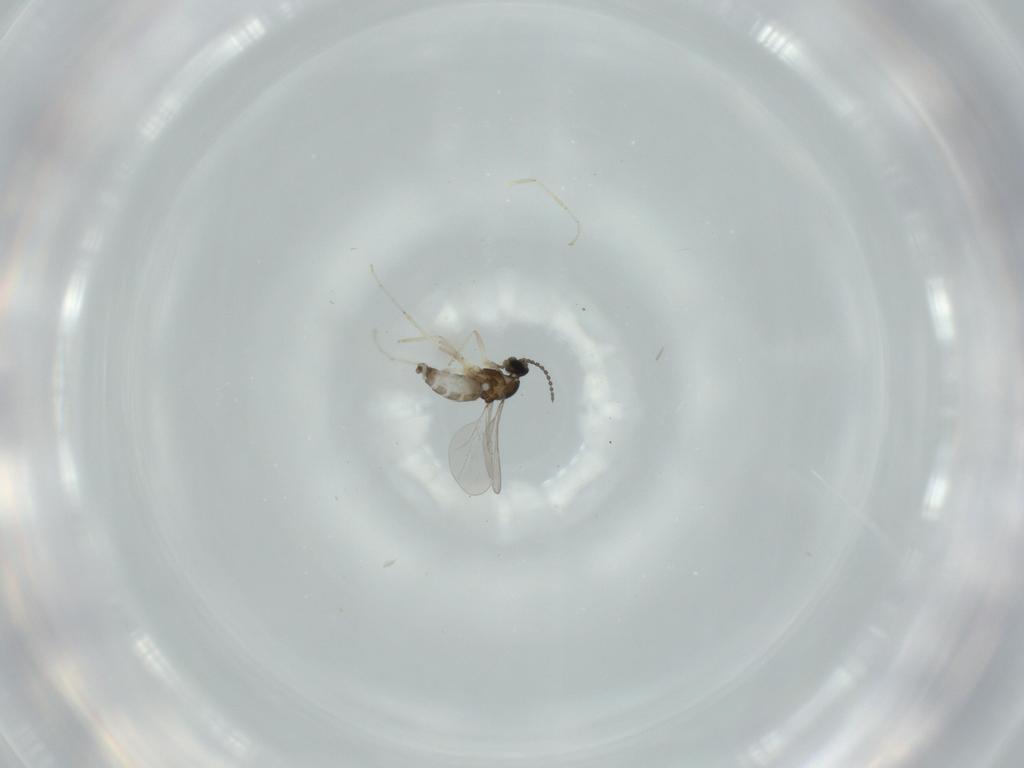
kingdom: Animalia
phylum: Arthropoda
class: Insecta
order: Diptera
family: Cecidomyiidae
